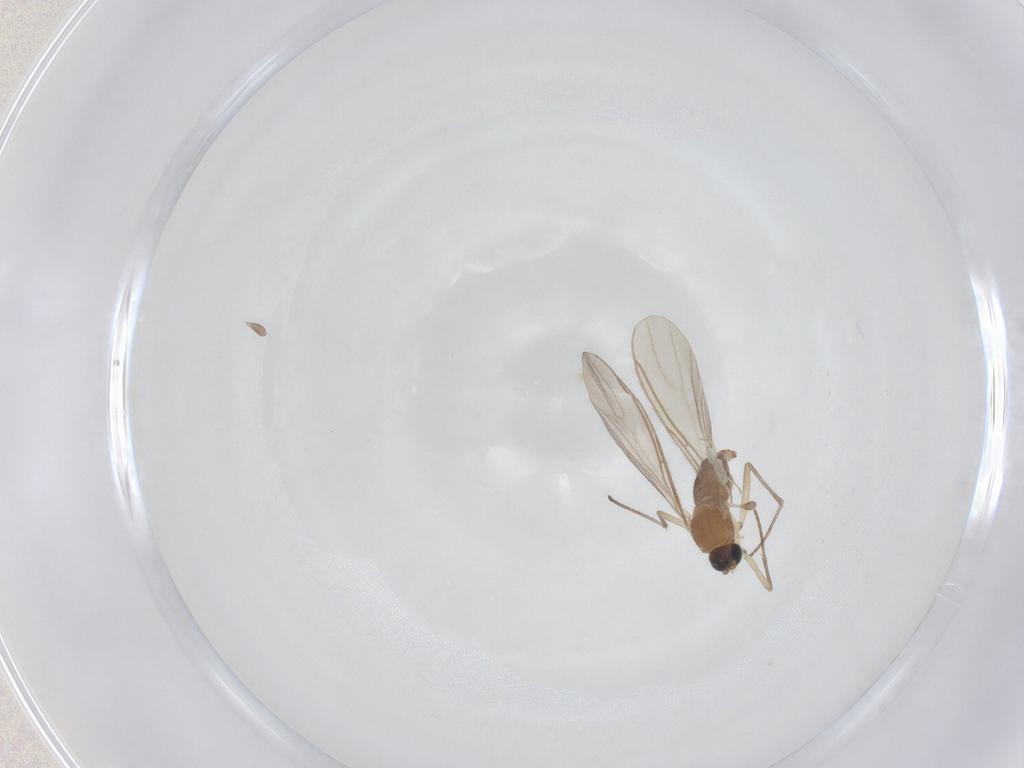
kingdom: Animalia
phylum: Arthropoda
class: Insecta
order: Diptera
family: Sciaridae
